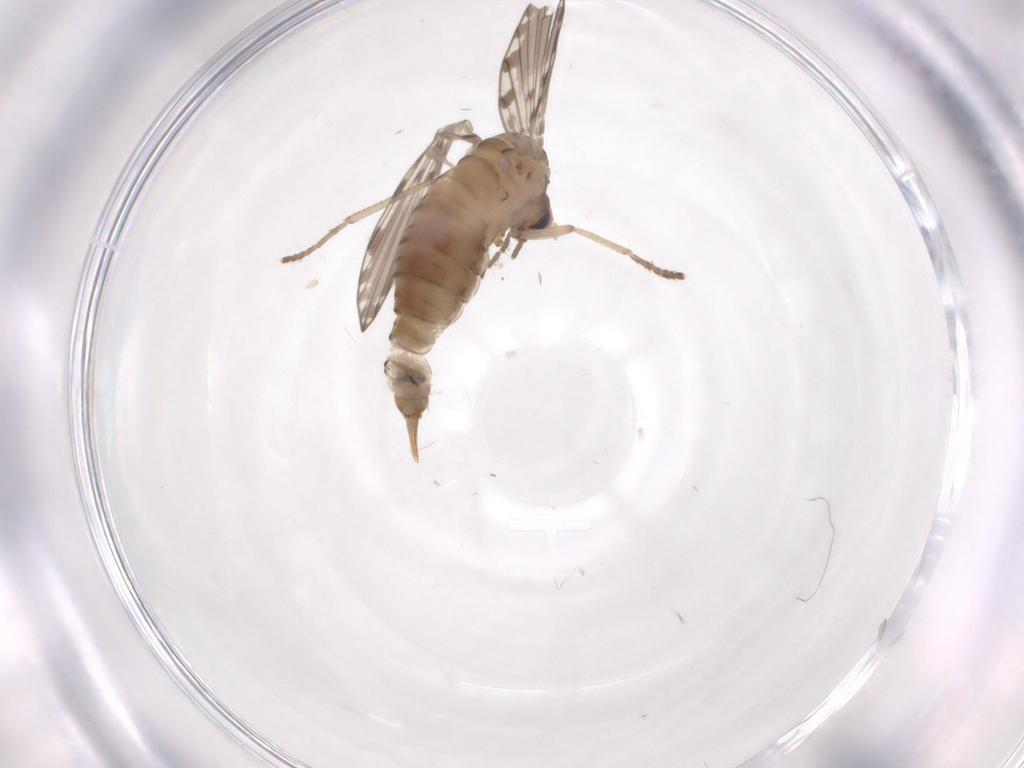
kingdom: Animalia
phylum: Arthropoda
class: Insecta
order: Diptera
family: Psychodidae
